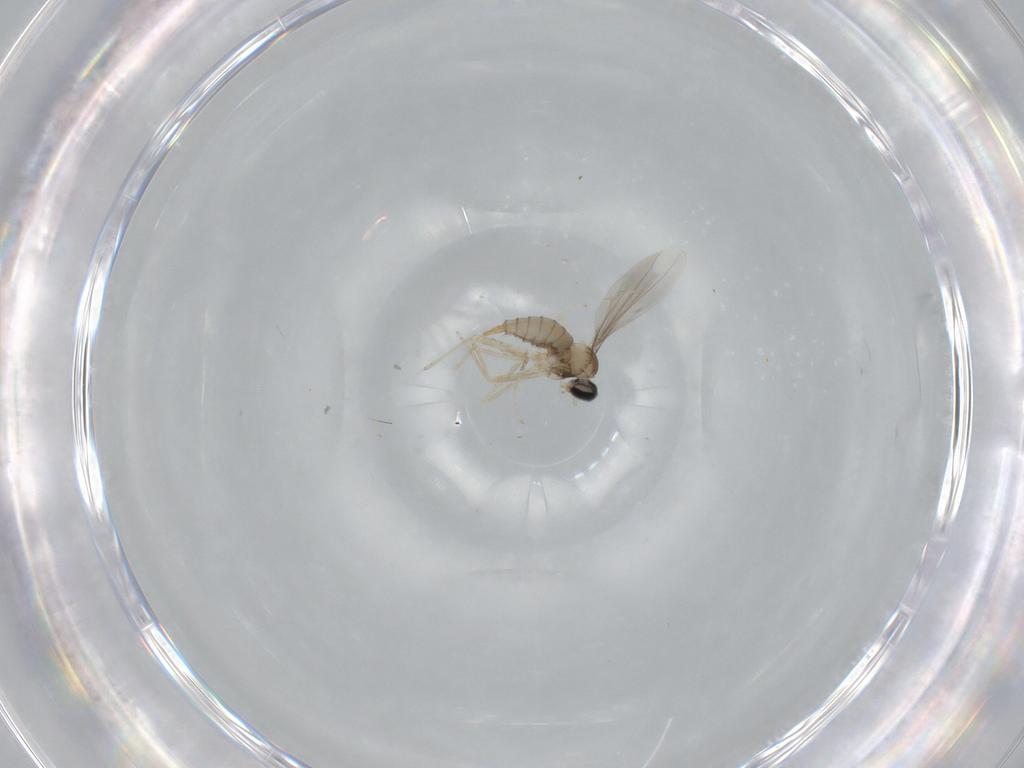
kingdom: Animalia
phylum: Arthropoda
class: Insecta
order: Diptera
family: Cecidomyiidae
